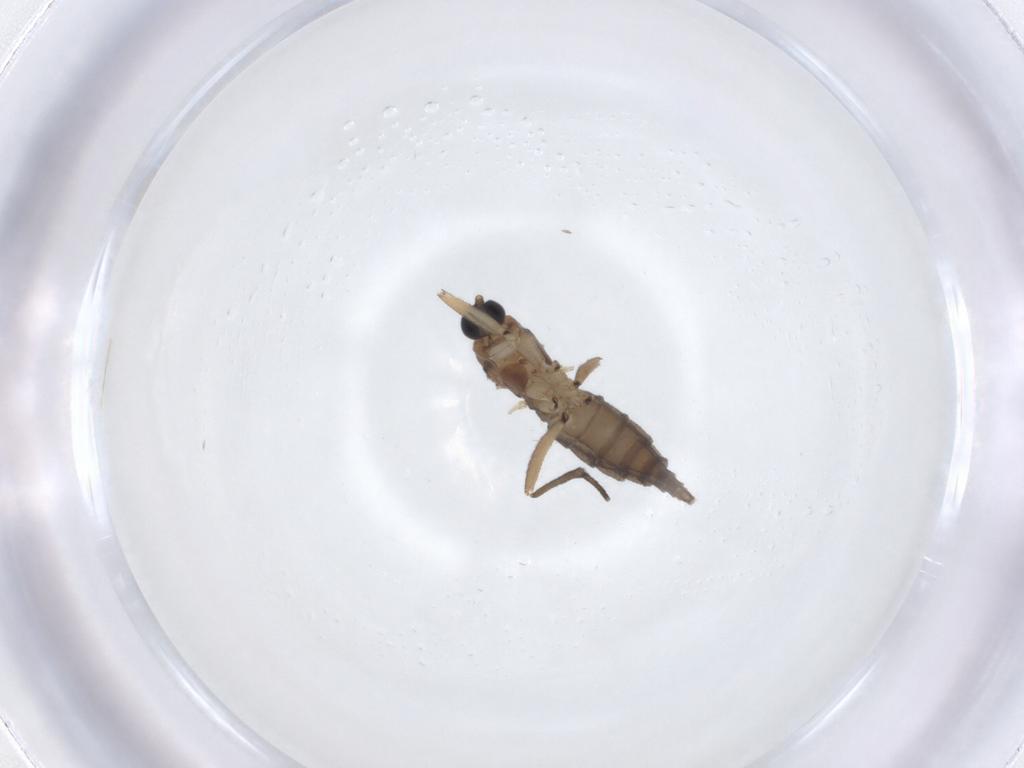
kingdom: Animalia
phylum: Arthropoda
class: Insecta
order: Diptera
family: Sciaridae
